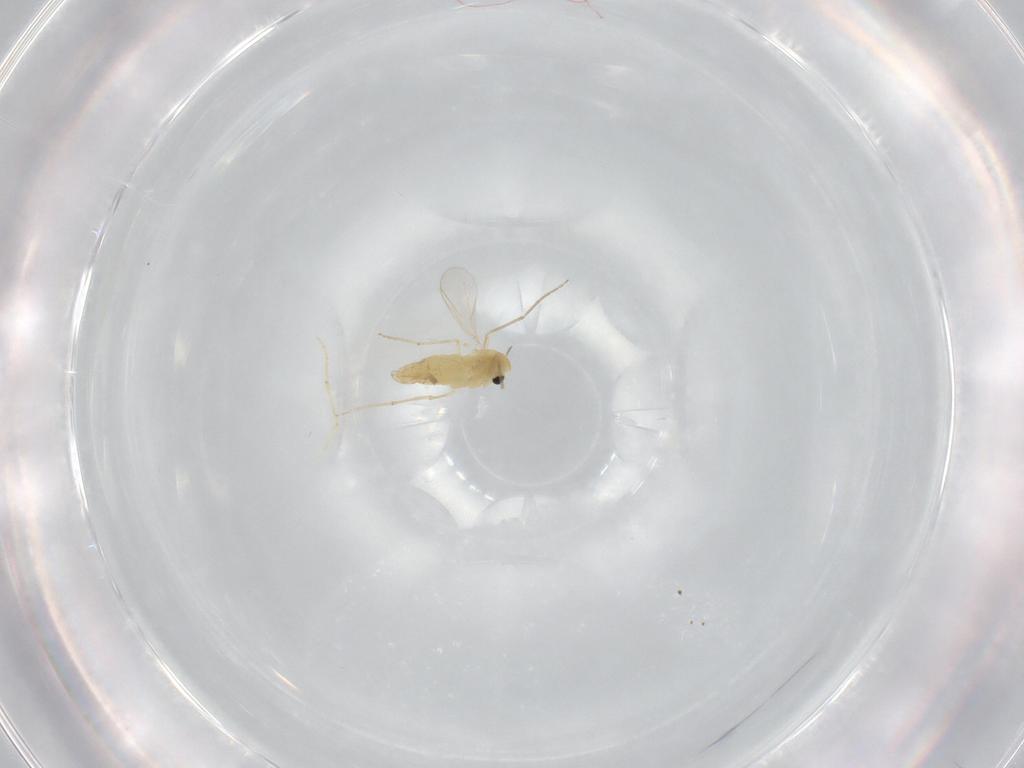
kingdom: Animalia
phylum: Arthropoda
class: Insecta
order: Diptera
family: Chironomidae
